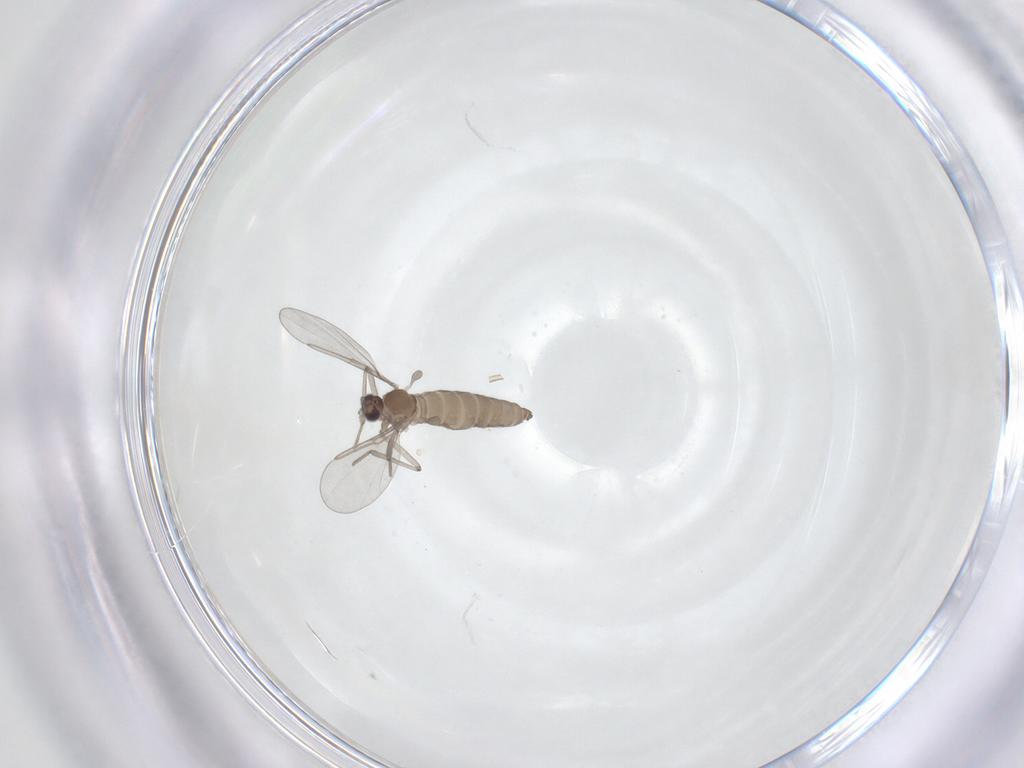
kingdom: Animalia
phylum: Arthropoda
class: Insecta
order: Diptera
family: Cecidomyiidae
